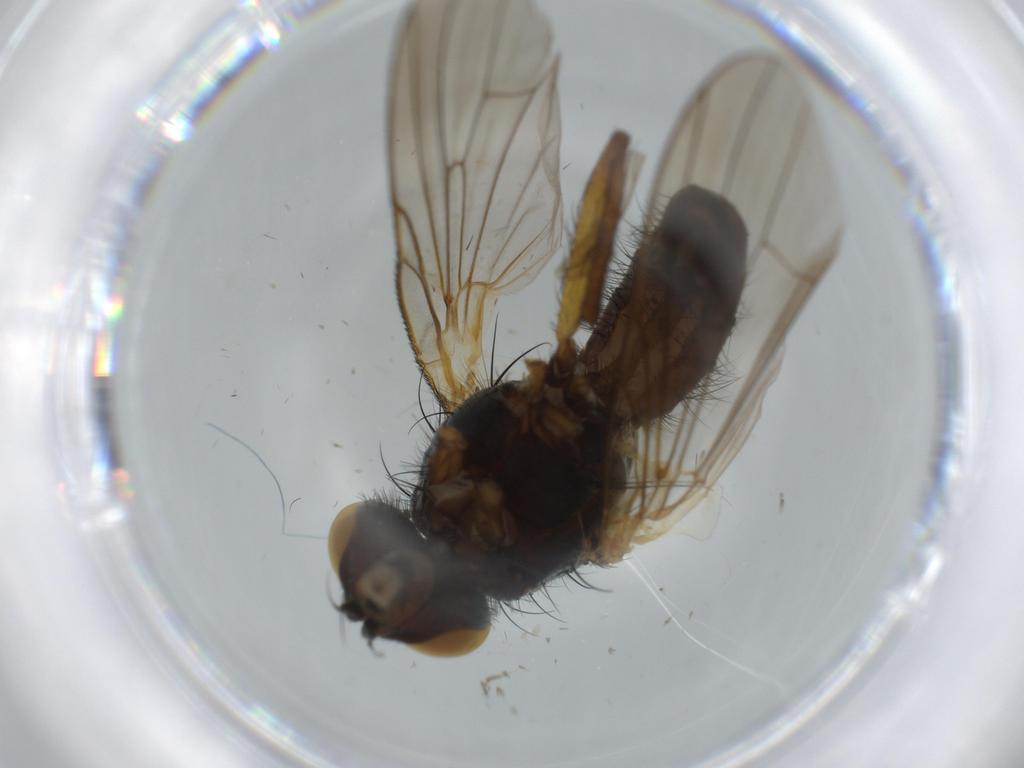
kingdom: Animalia
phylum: Arthropoda
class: Insecta
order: Diptera
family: Anthomyiidae
